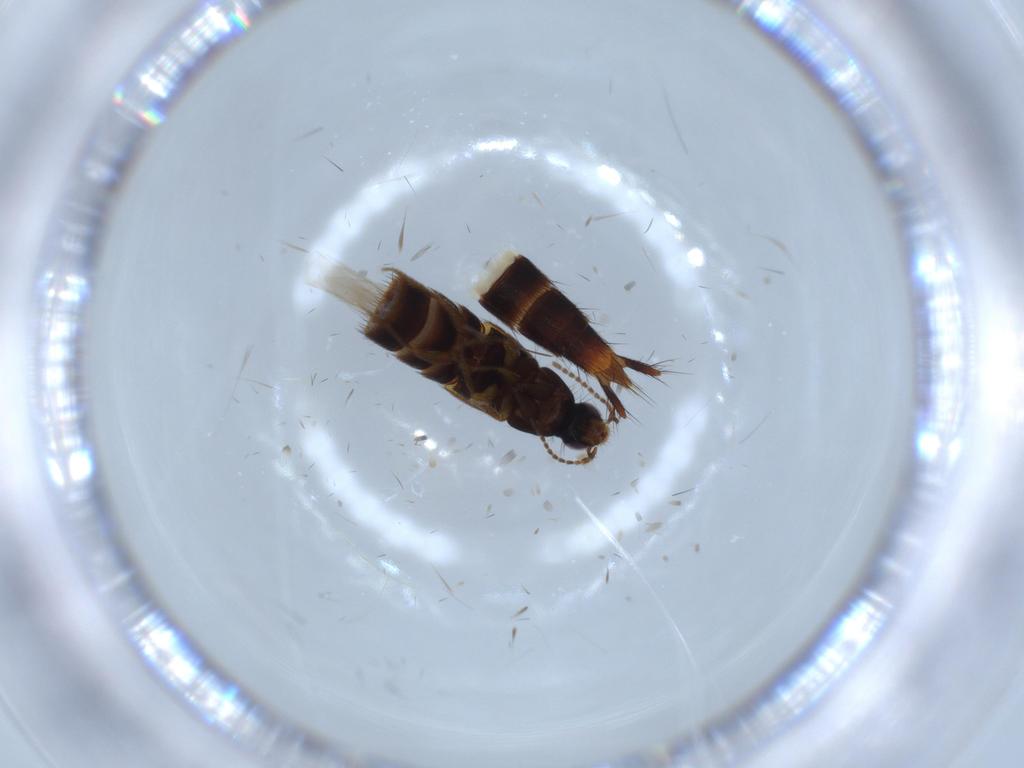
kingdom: Animalia
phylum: Arthropoda
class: Insecta
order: Coleoptera
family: Staphylinidae
